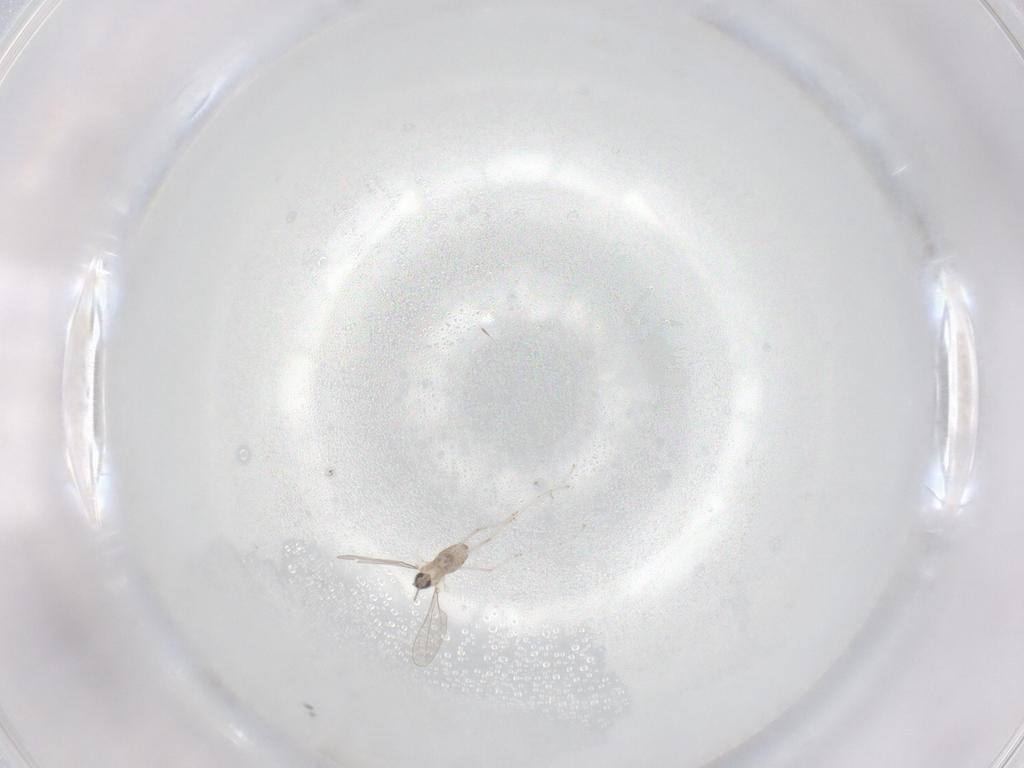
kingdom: Animalia
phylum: Arthropoda
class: Insecta
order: Diptera
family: Cecidomyiidae
